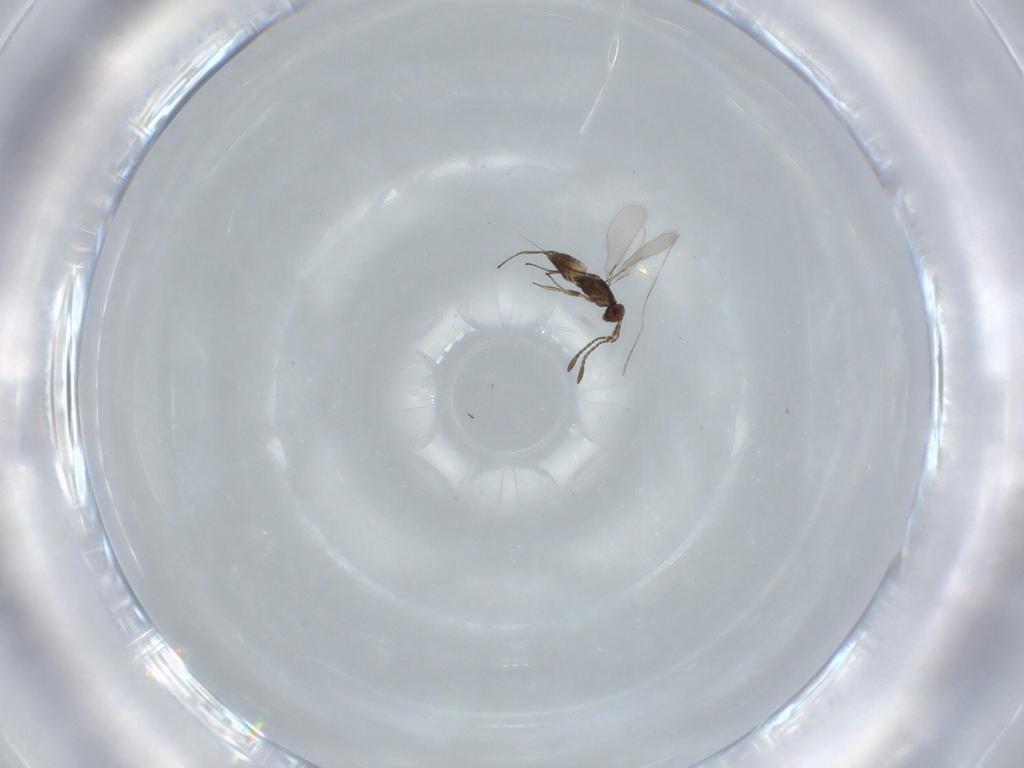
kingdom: Animalia
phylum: Arthropoda
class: Insecta
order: Hymenoptera
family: Mymaridae
